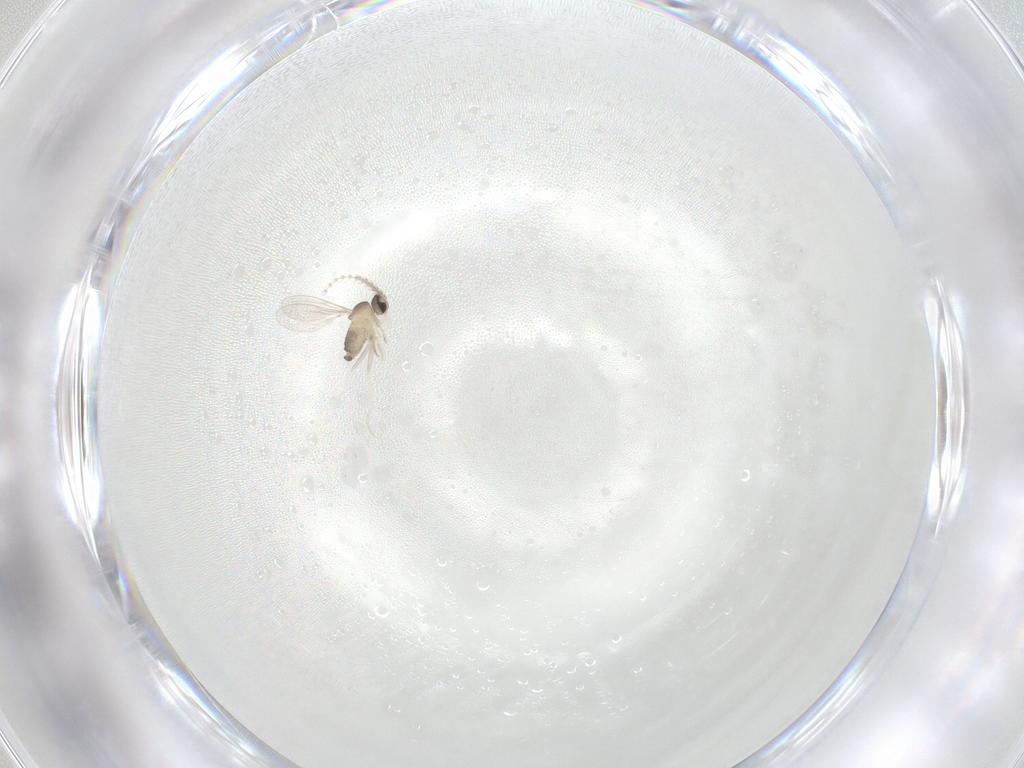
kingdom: Animalia
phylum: Arthropoda
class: Insecta
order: Diptera
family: Cecidomyiidae
